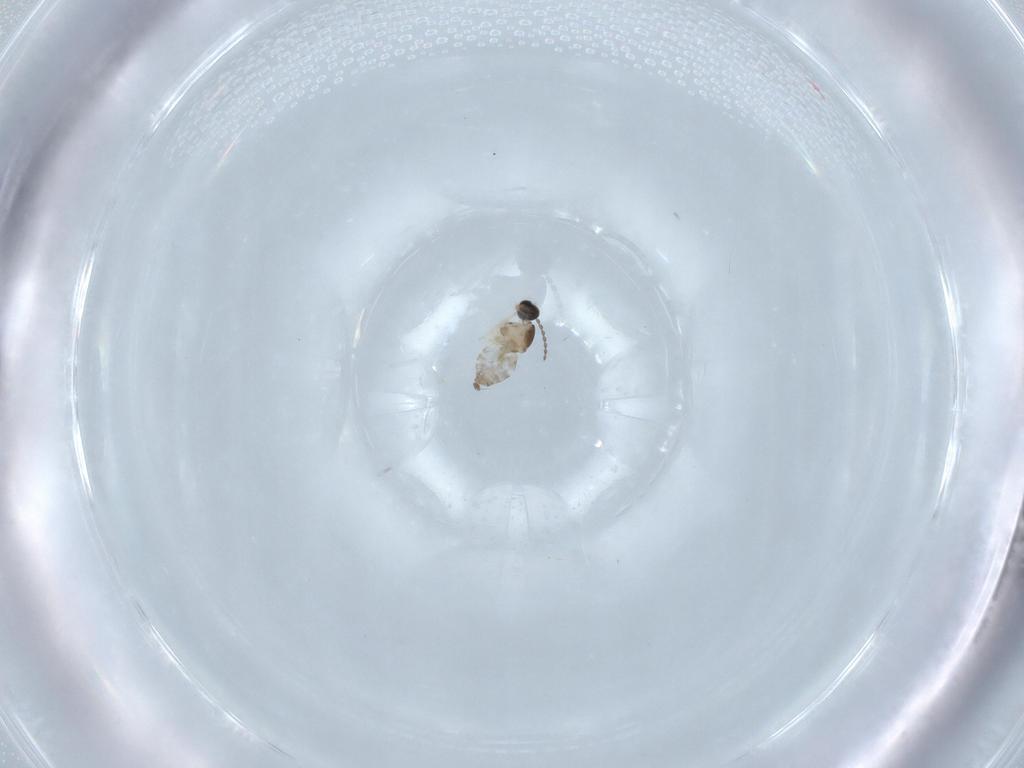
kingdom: Animalia
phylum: Arthropoda
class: Insecta
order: Diptera
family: Cecidomyiidae
